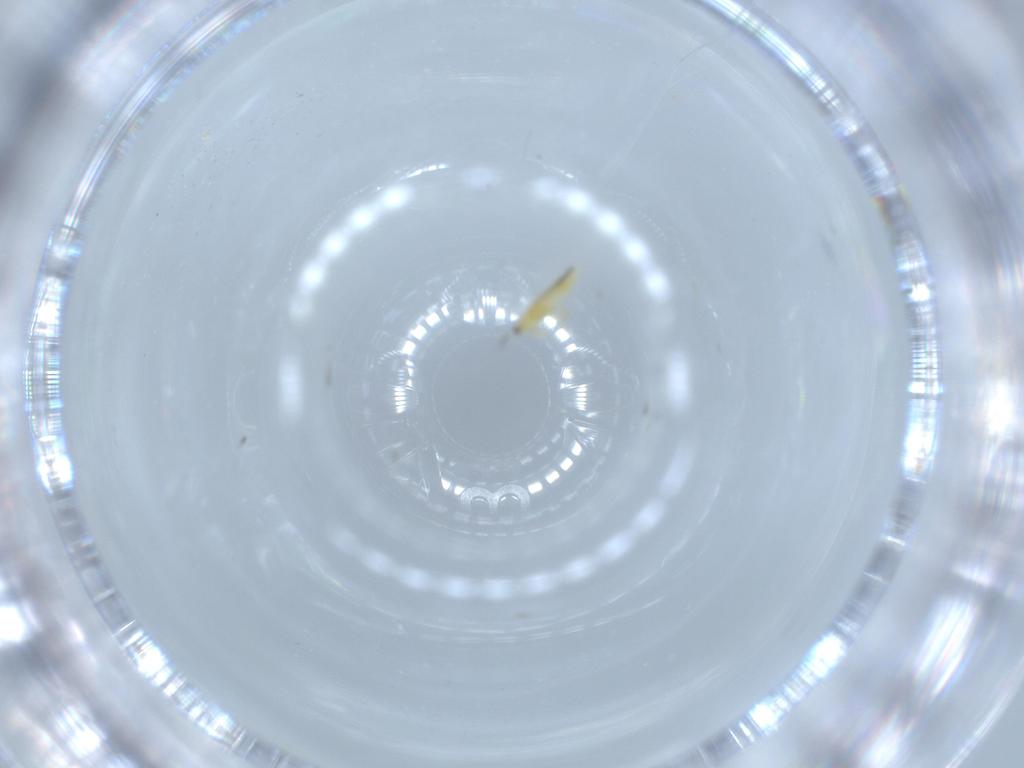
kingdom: Animalia
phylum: Arthropoda
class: Insecta
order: Thysanoptera
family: Thripidae
